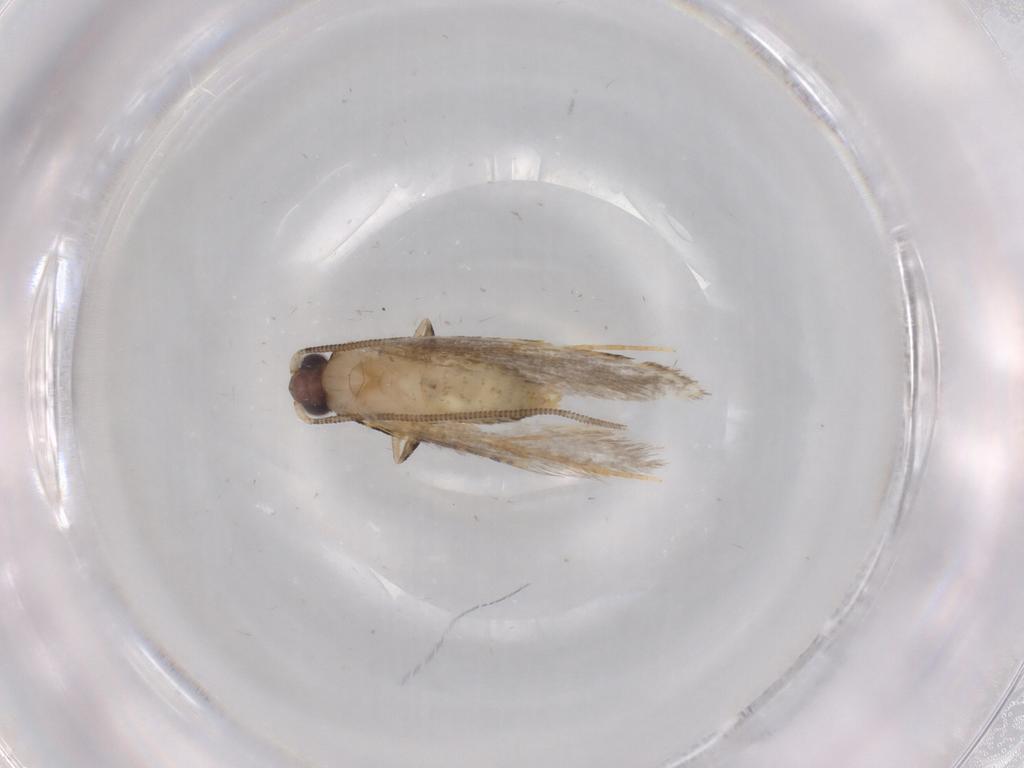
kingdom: Animalia
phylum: Arthropoda
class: Insecta
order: Lepidoptera
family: Tineidae
